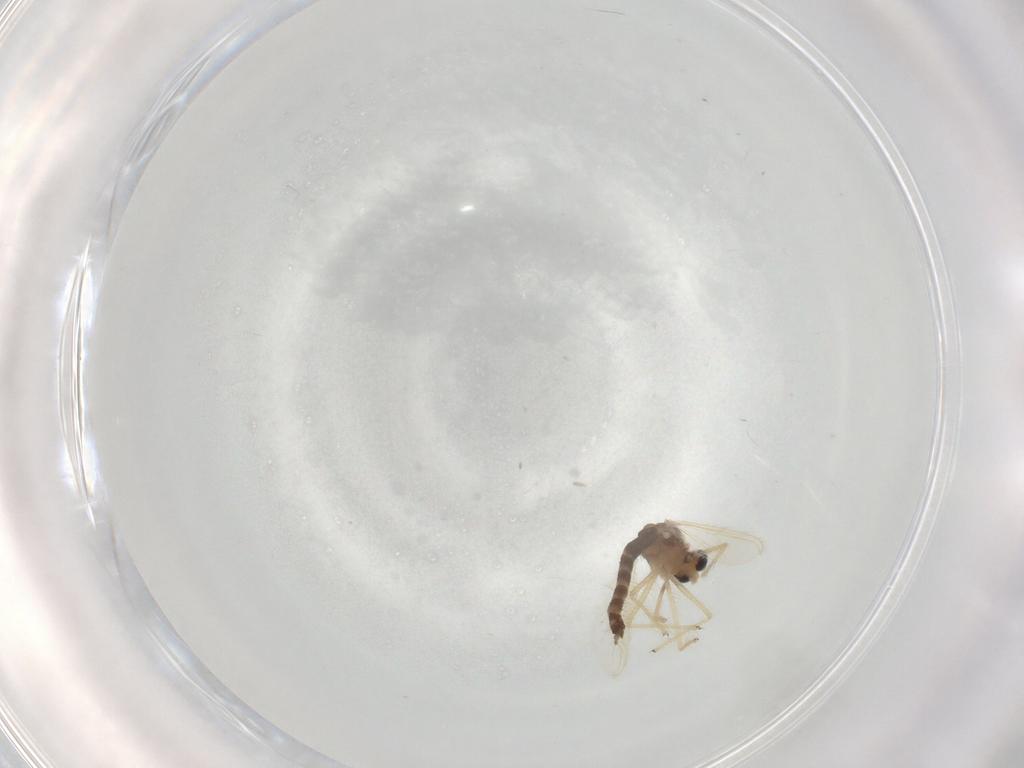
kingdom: Animalia
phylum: Arthropoda
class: Insecta
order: Diptera
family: Chironomidae
